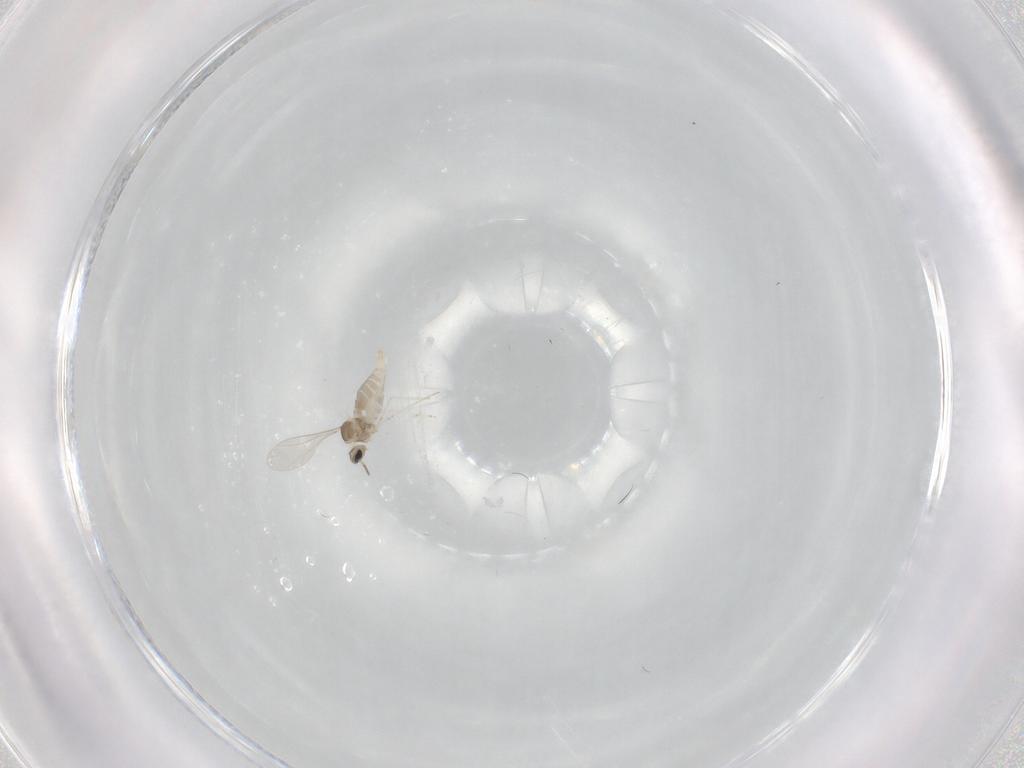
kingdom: Animalia
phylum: Arthropoda
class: Insecta
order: Diptera
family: Cecidomyiidae
